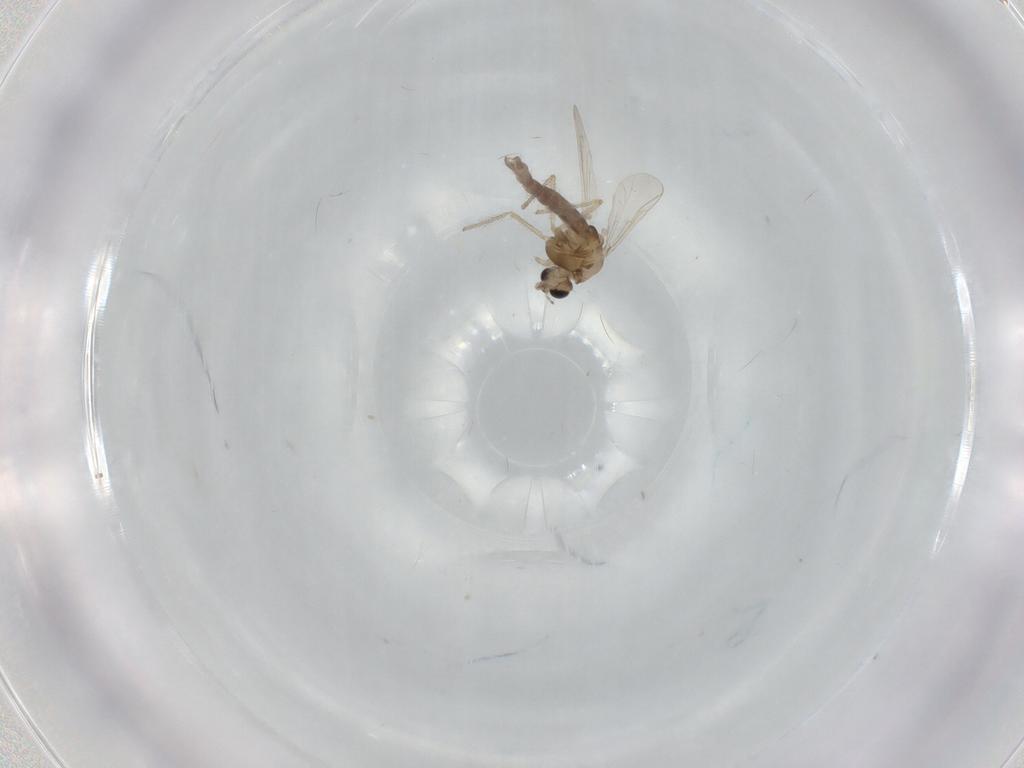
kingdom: Animalia
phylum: Arthropoda
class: Insecta
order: Diptera
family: Chironomidae
